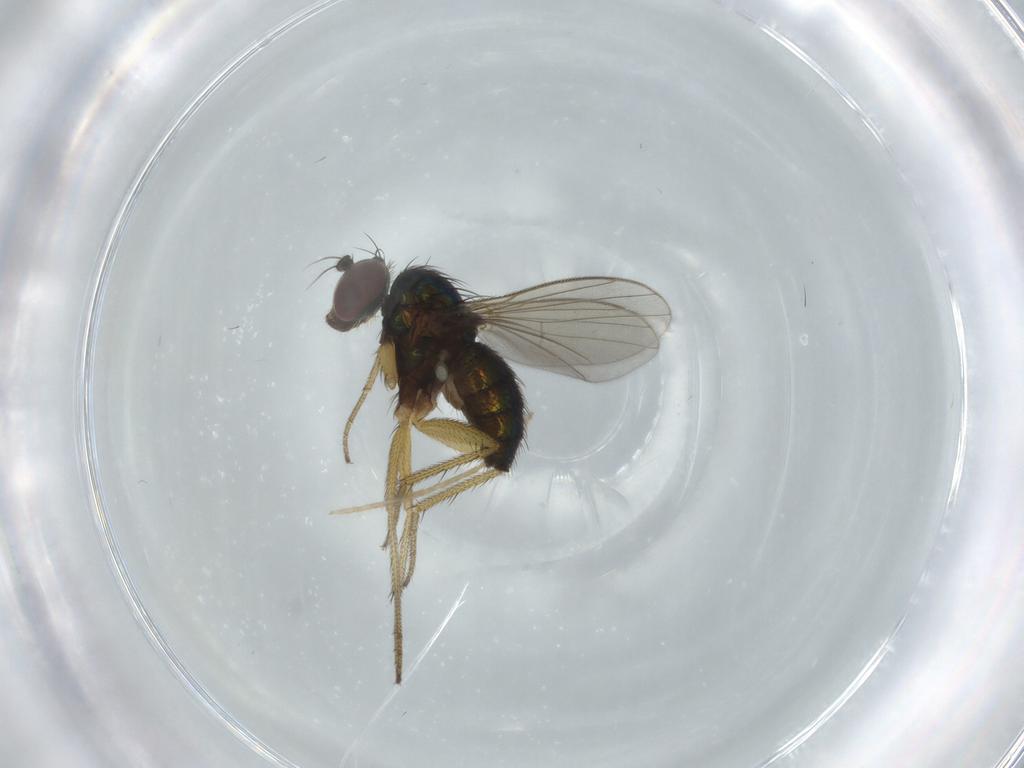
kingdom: Animalia
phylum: Arthropoda
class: Insecta
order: Diptera
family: Dolichopodidae
